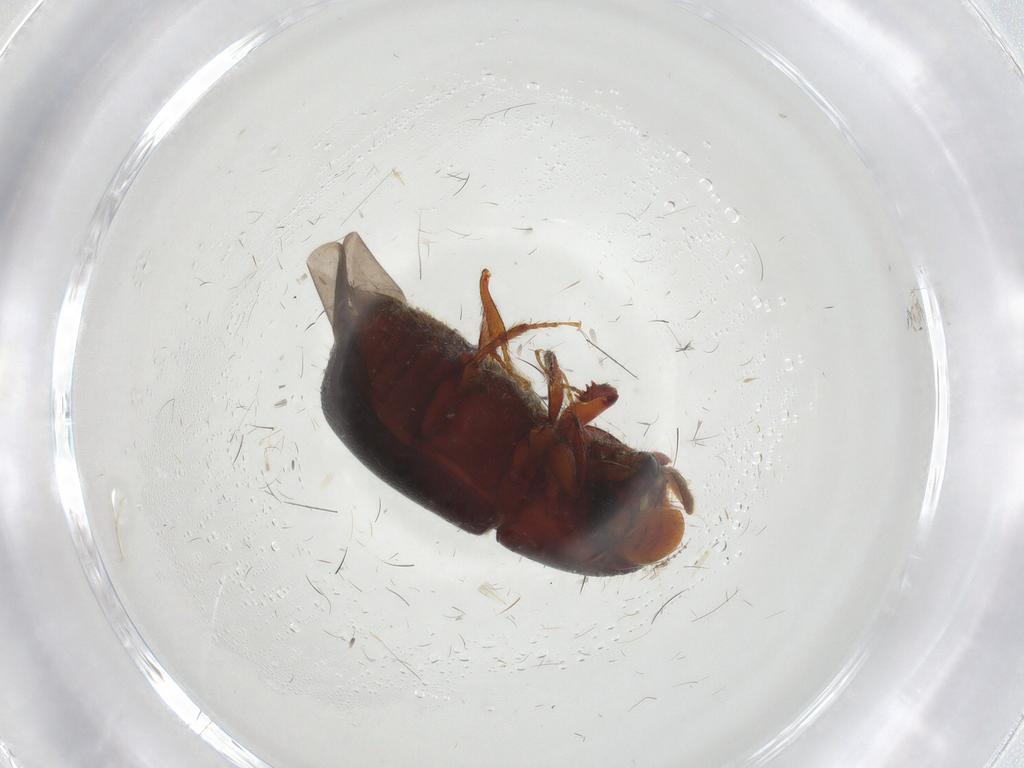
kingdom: Animalia
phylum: Arthropoda
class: Insecta
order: Coleoptera
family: Curculionidae
